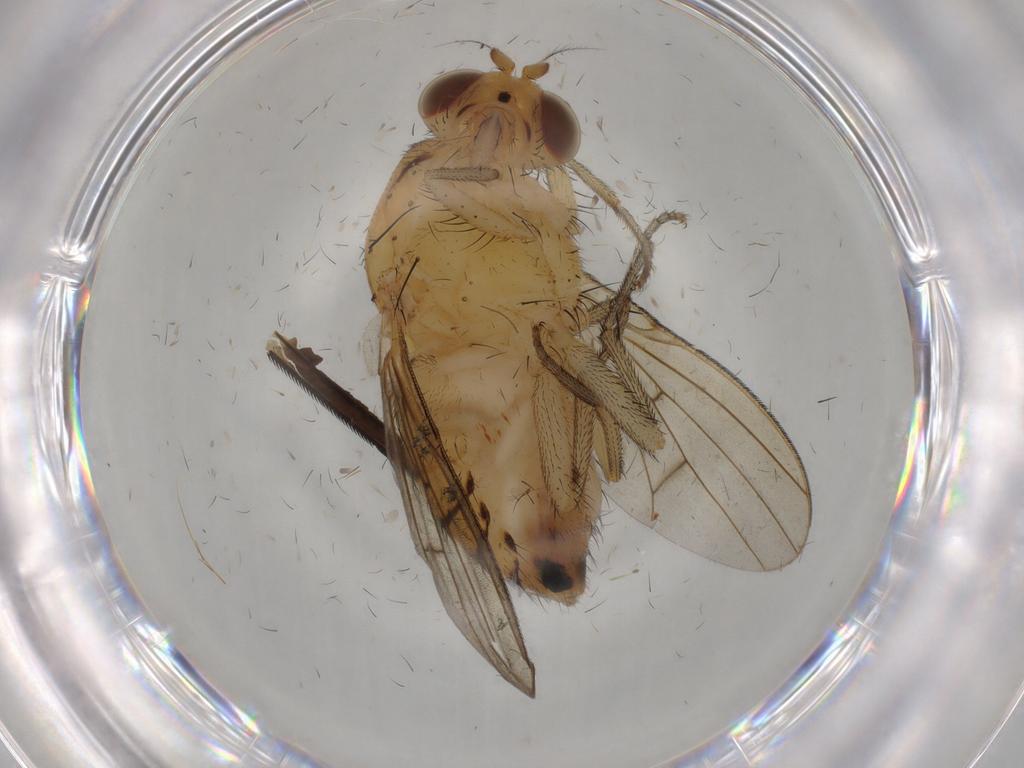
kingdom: Animalia
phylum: Arthropoda
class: Insecta
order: Diptera
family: Lauxaniidae
